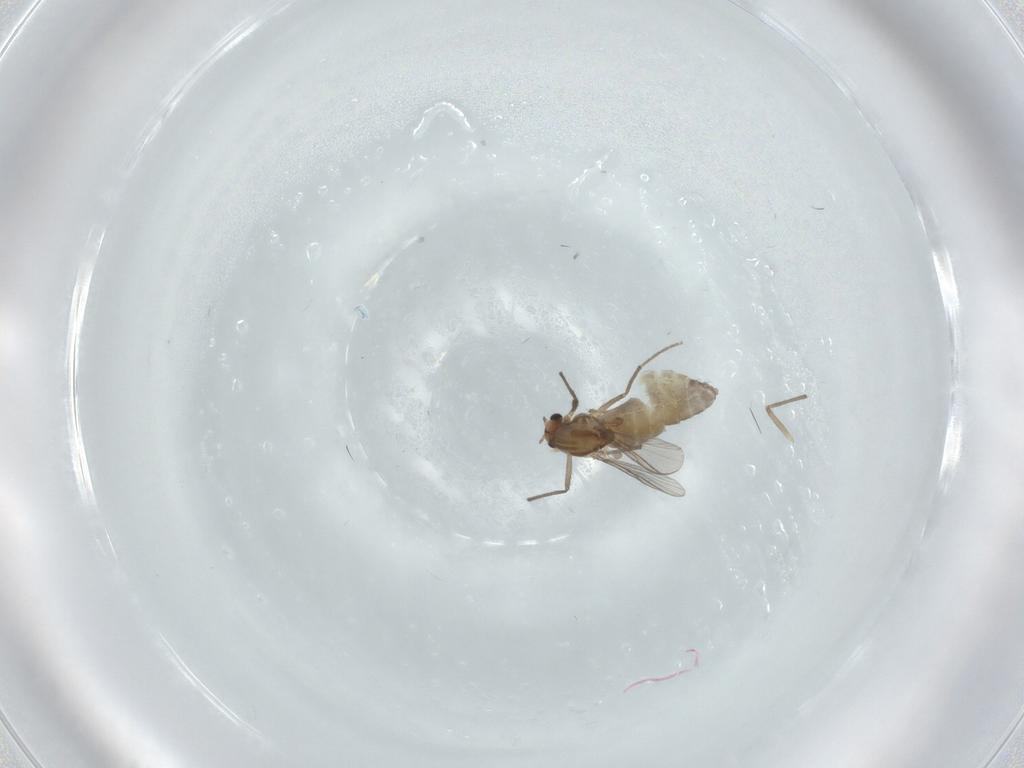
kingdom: Animalia
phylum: Arthropoda
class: Insecta
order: Diptera
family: Chironomidae
